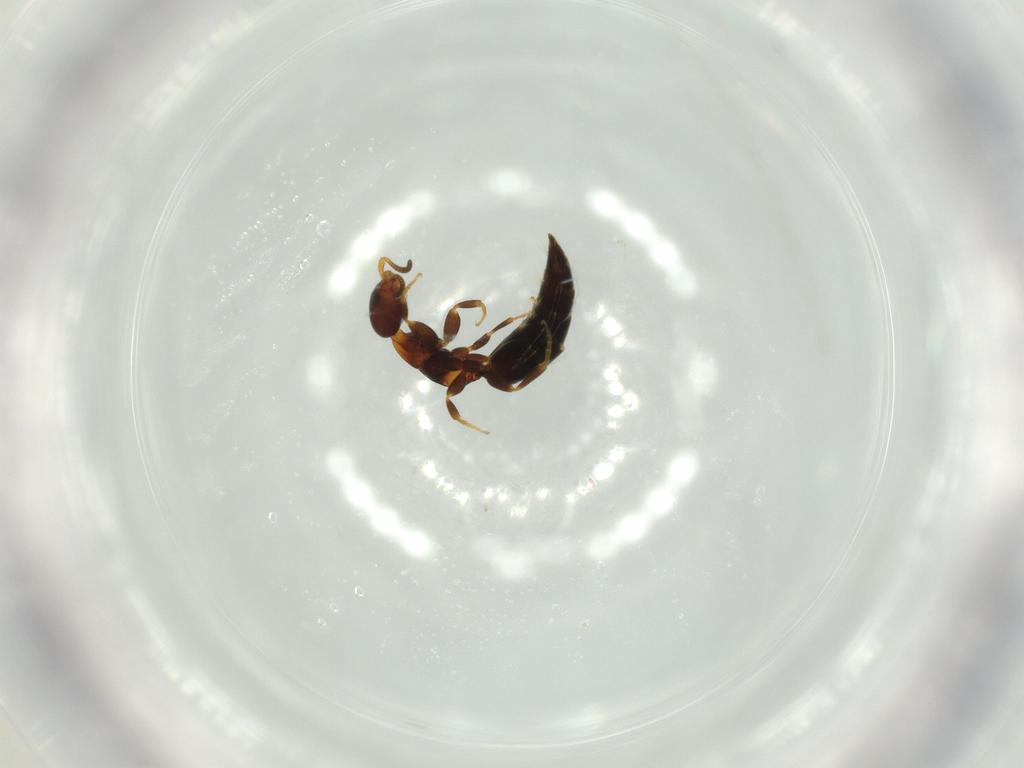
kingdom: Animalia
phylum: Arthropoda
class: Insecta
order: Hymenoptera
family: Bethylidae
